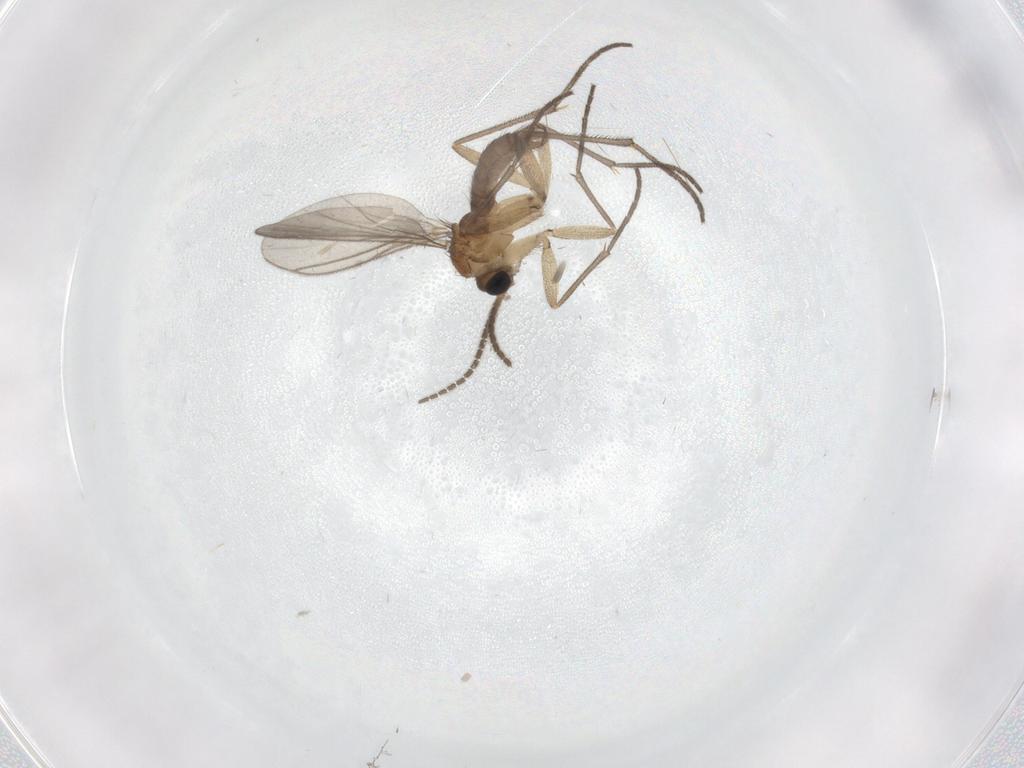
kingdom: Animalia
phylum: Arthropoda
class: Insecta
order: Diptera
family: Sciaridae
